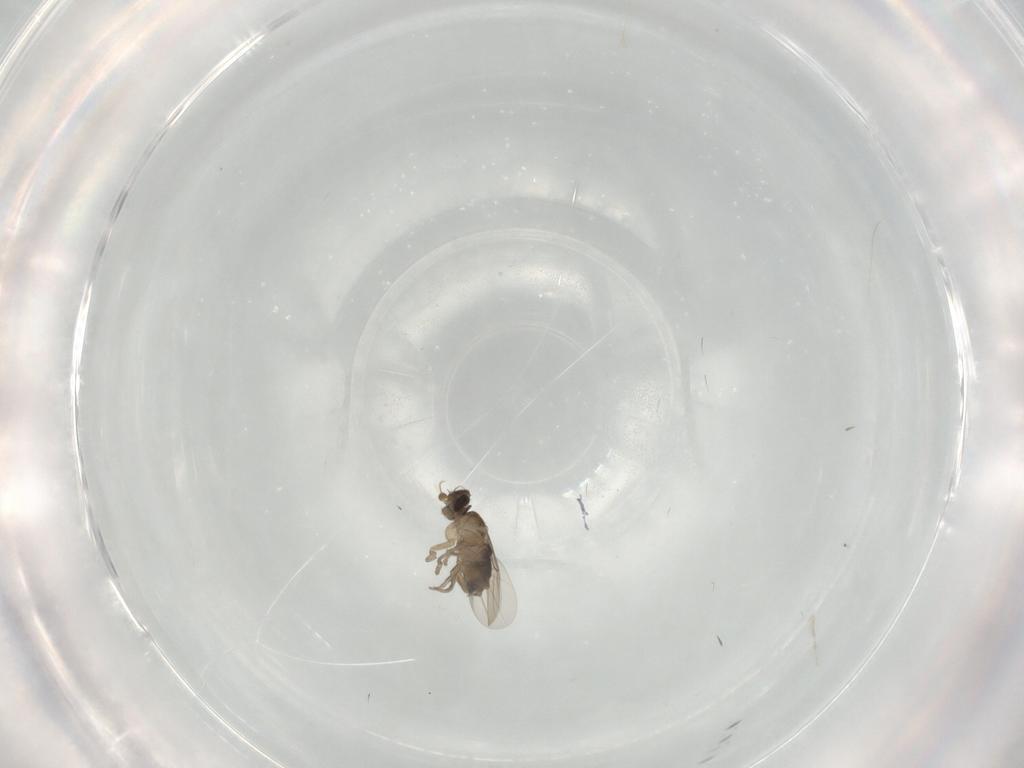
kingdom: Animalia
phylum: Arthropoda
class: Insecta
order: Diptera
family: Phoridae
